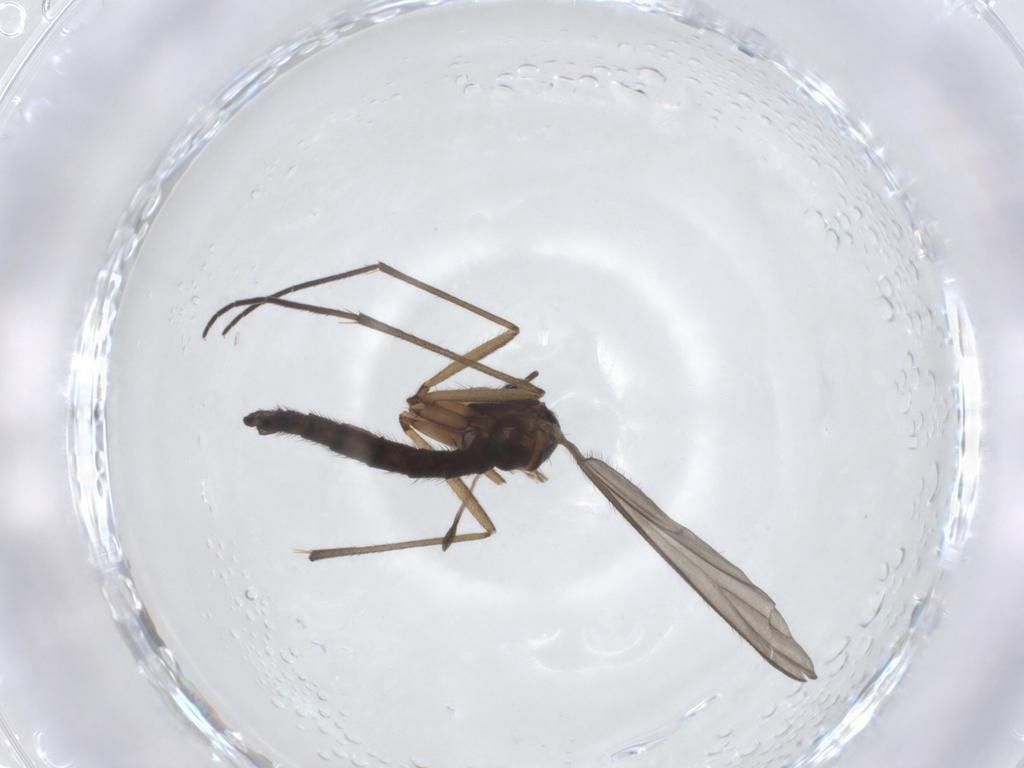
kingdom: Animalia
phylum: Arthropoda
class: Insecta
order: Diptera
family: Sciaridae
